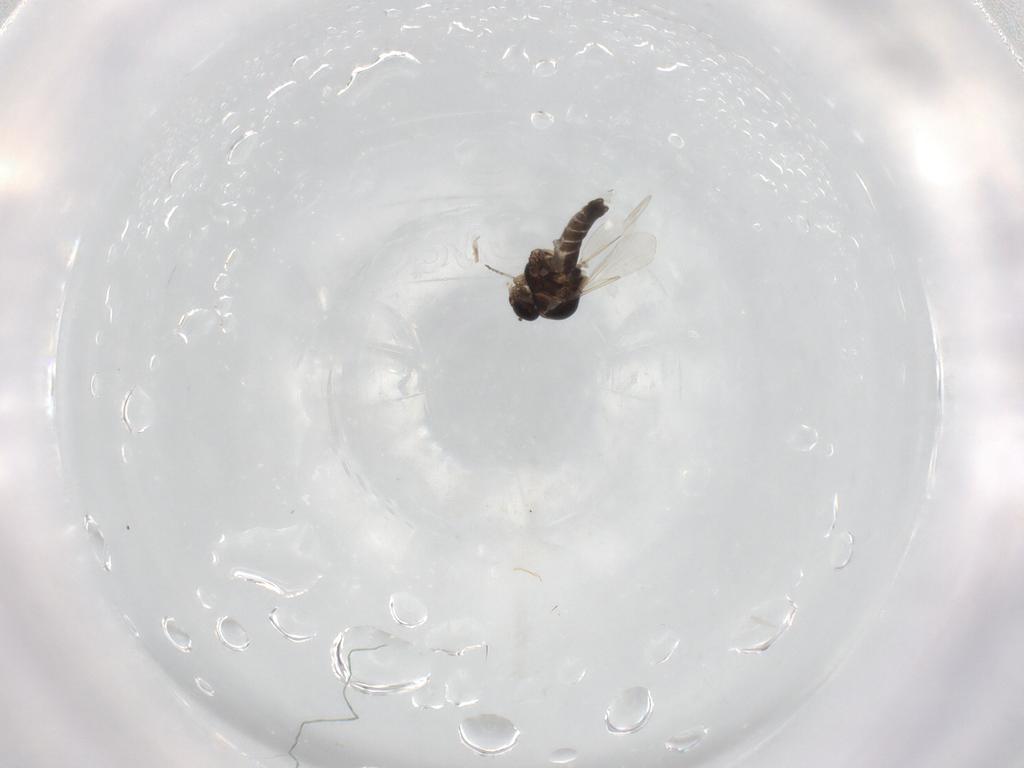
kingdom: Animalia
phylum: Arthropoda
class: Insecta
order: Diptera
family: Ceratopogonidae
